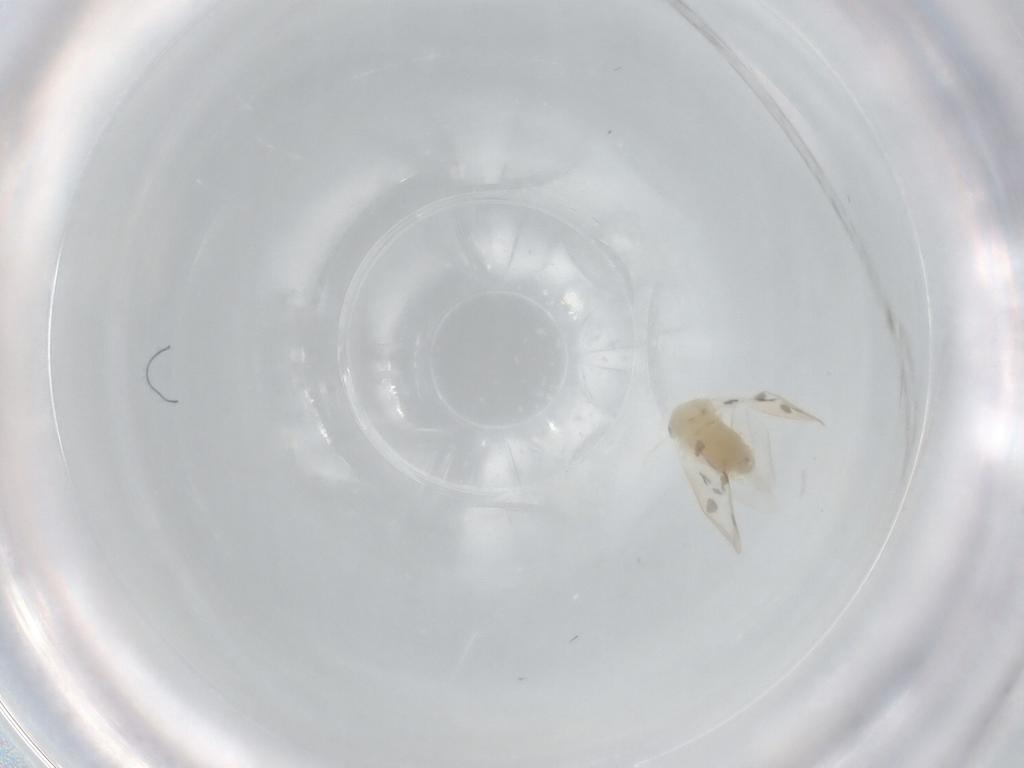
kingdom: Animalia
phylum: Arthropoda
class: Insecta
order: Hemiptera
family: Aleyrodidae
